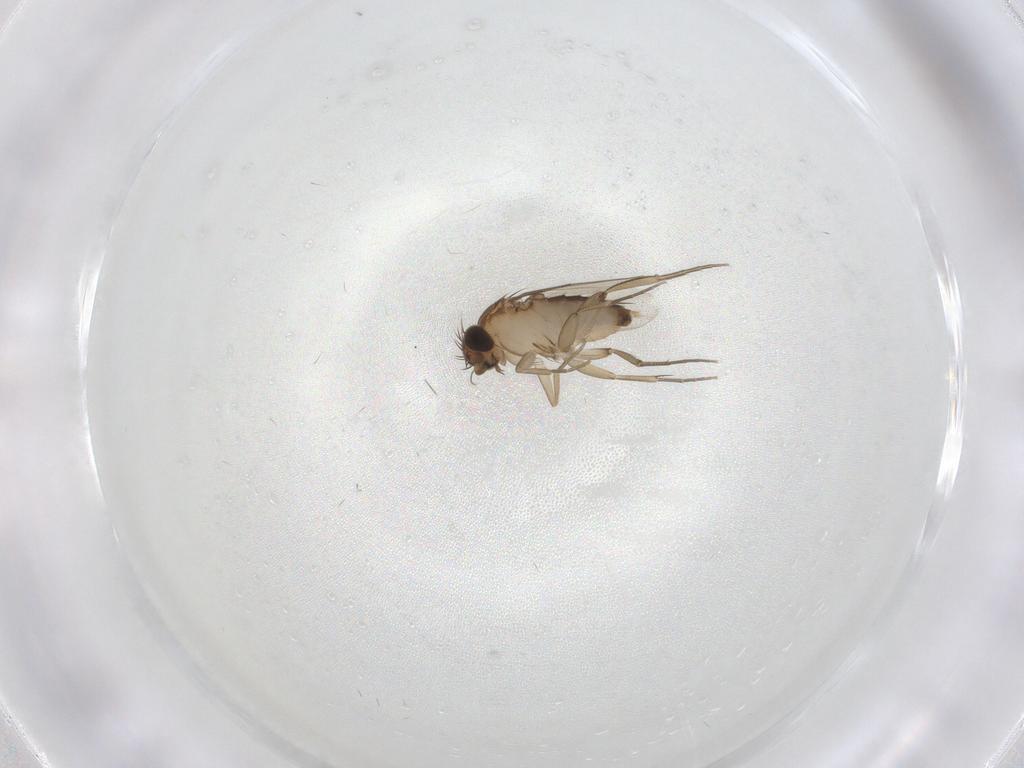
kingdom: Animalia
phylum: Arthropoda
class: Insecta
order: Diptera
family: Phoridae
